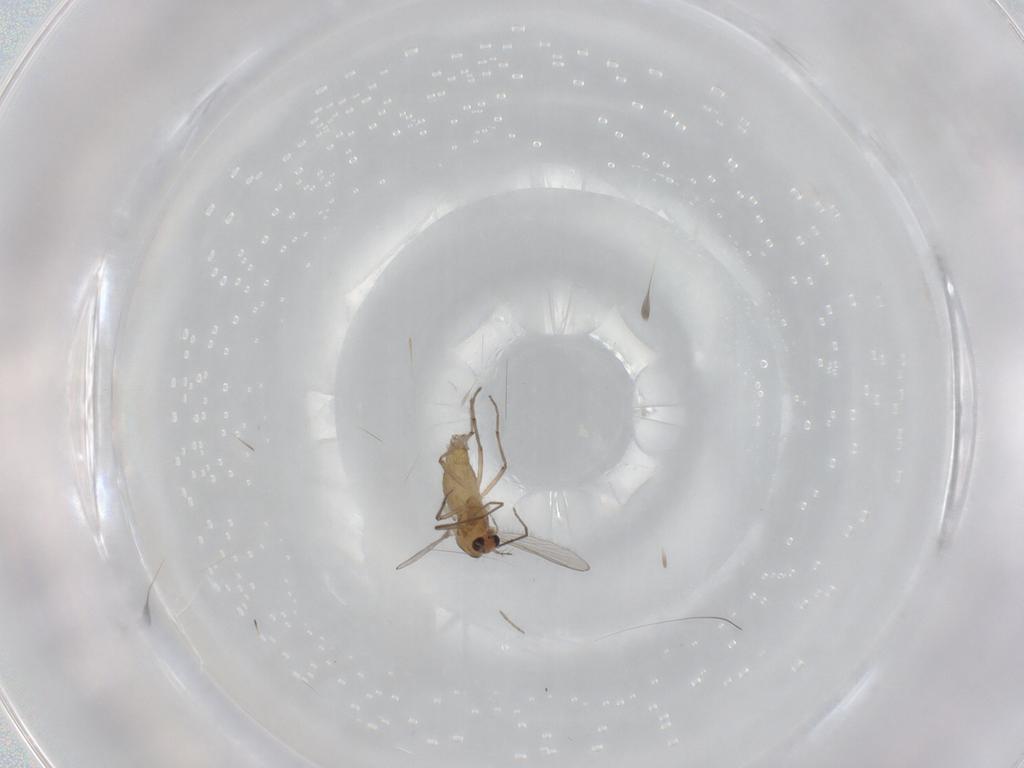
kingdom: Animalia
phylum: Arthropoda
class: Insecta
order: Diptera
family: Chironomidae
